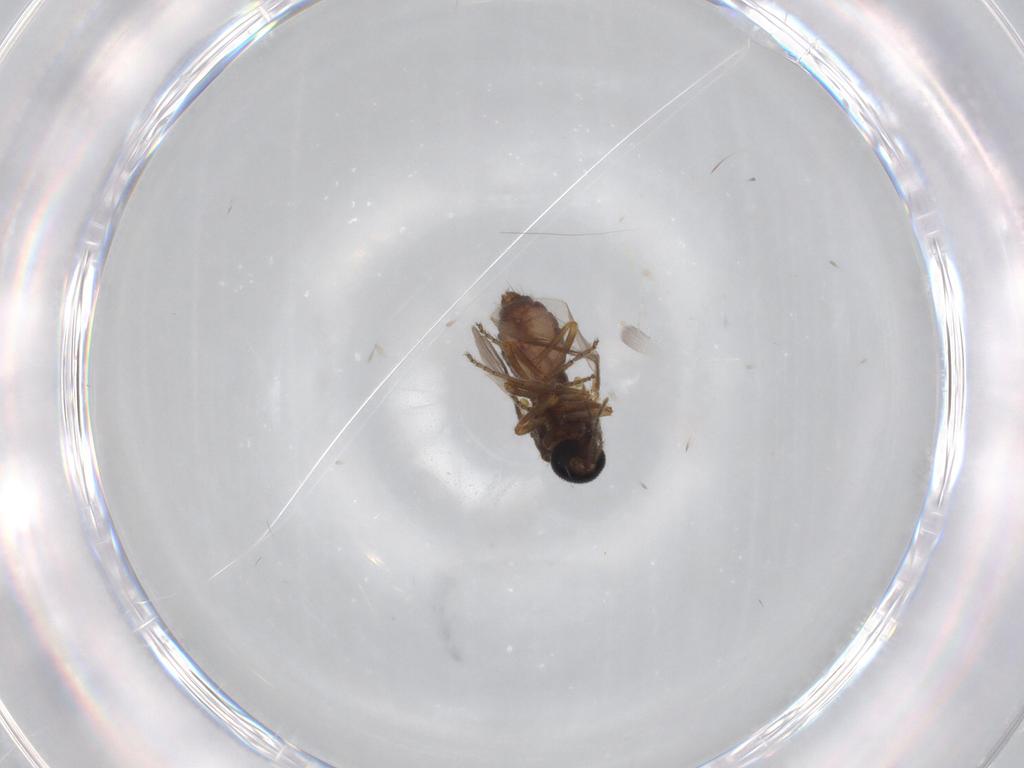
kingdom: Animalia
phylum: Arthropoda
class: Insecta
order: Diptera
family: Ceratopogonidae
